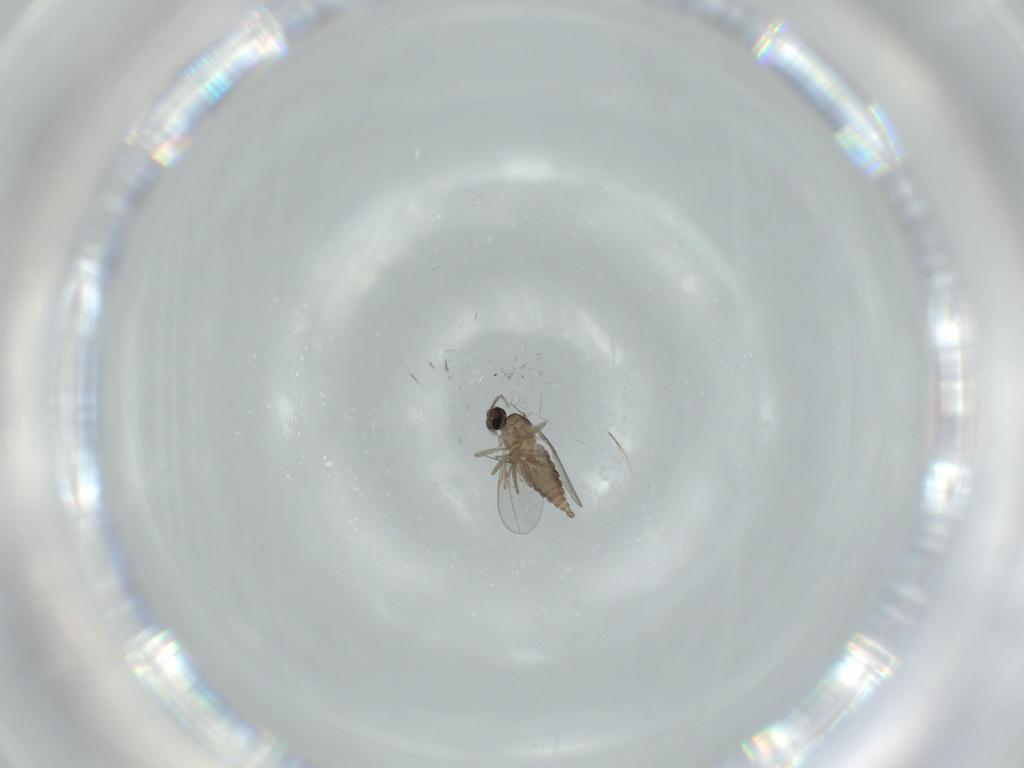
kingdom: Animalia
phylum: Arthropoda
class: Insecta
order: Diptera
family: Cecidomyiidae
